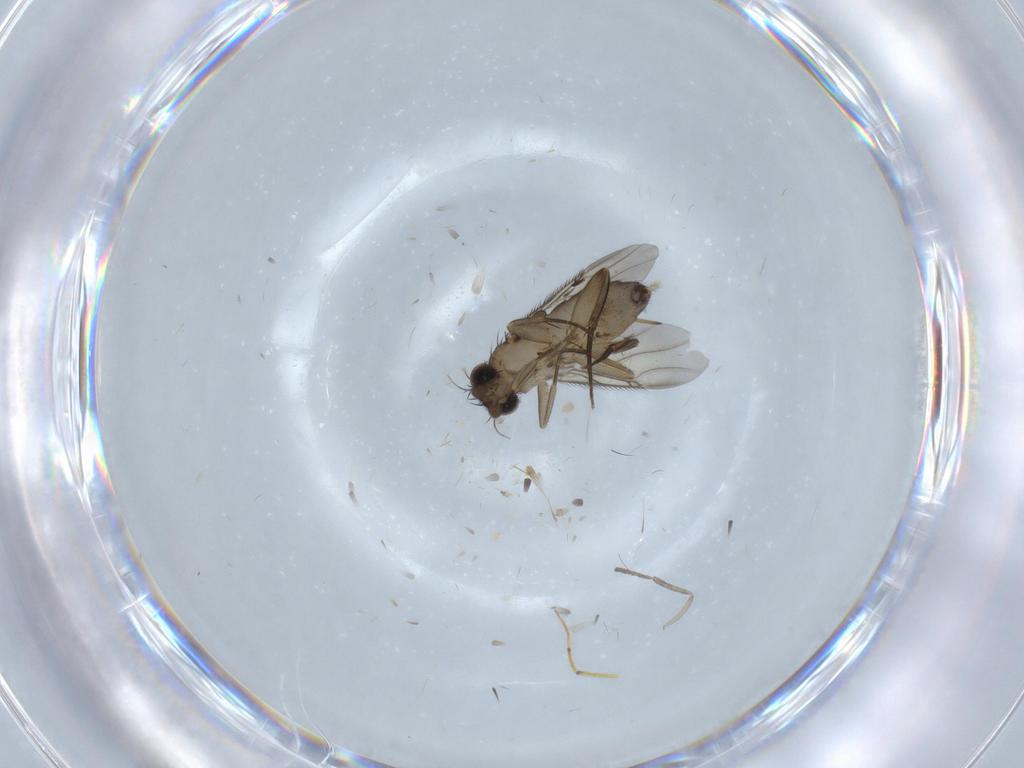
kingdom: Animalia
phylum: Arthropoda
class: Insecta
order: Diptera
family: Phoridae
